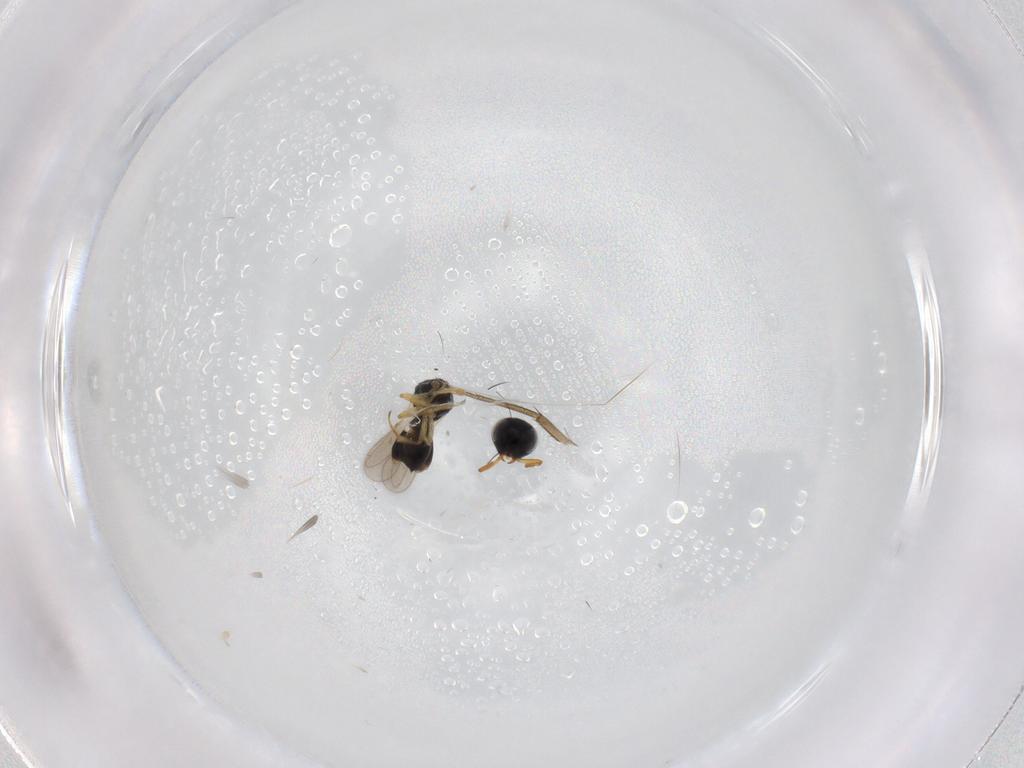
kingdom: Animalia
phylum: Arthropoda
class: Insecta
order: Hymenoptera
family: Scelionidae
